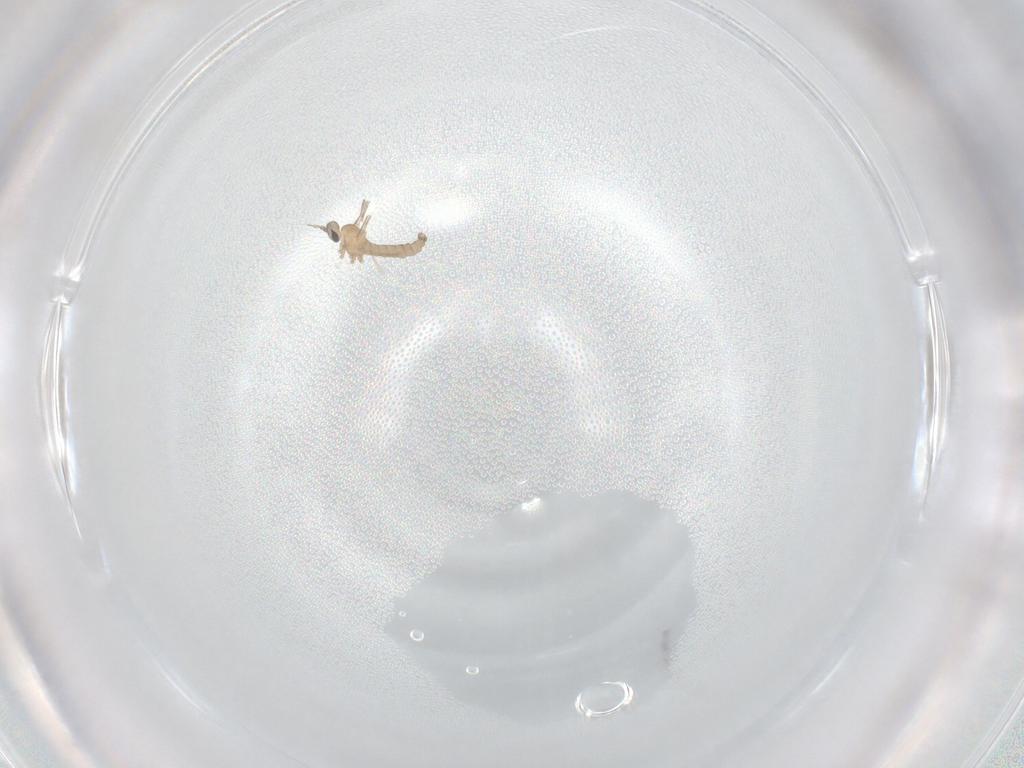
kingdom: Animalia
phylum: Arthropoda
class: Insecta
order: Diptera
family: Cecidomyiidae
